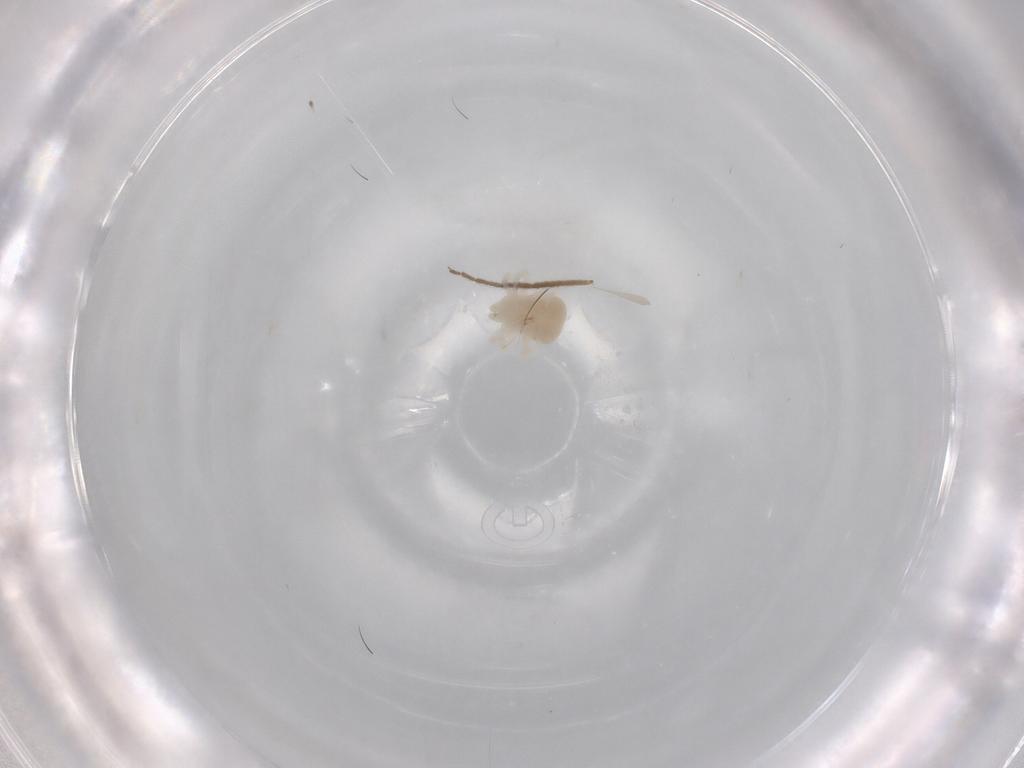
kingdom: Animalia
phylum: Arthropoda
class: Arachnida
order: Trombidiformes
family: Anystidae
